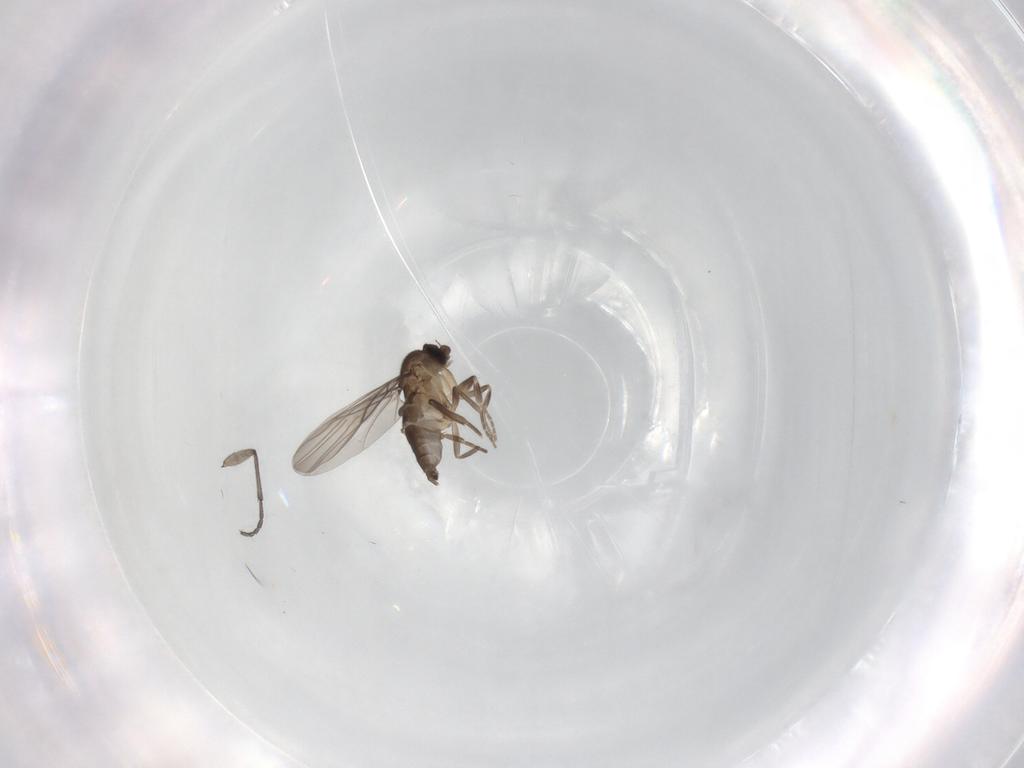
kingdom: Animalia
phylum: Arthropoda
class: Insecta
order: Diptera
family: Sciaridae
